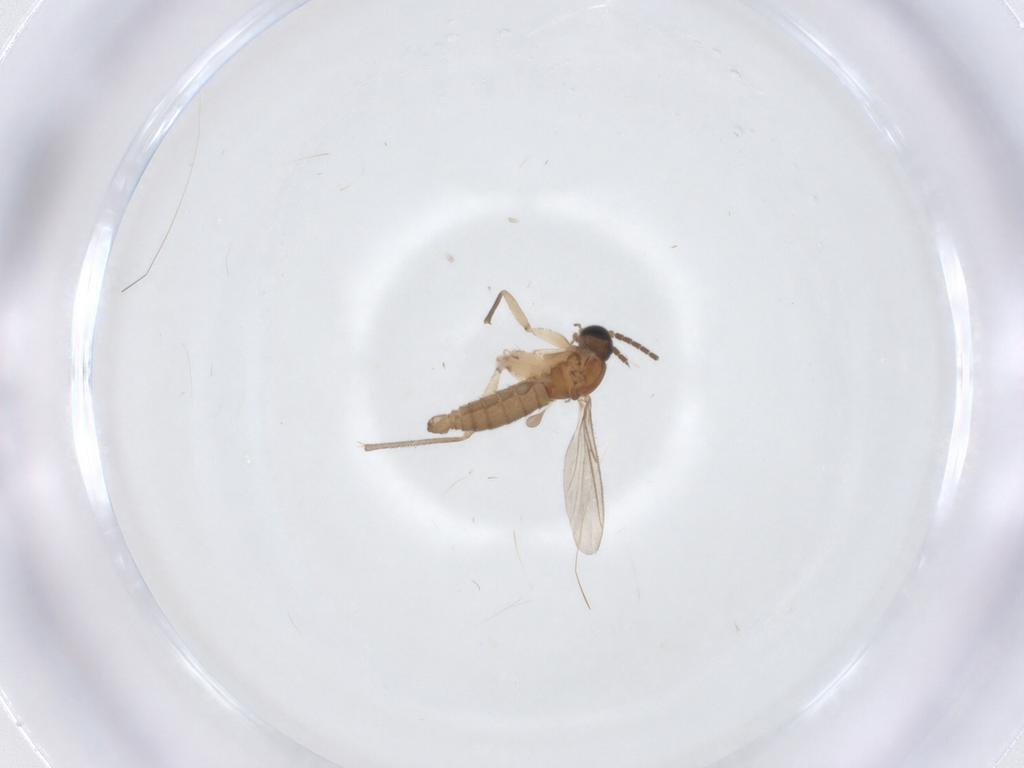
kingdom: Animalia
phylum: Arthropoda
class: Insecta
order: Diptera
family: Sciaridae
